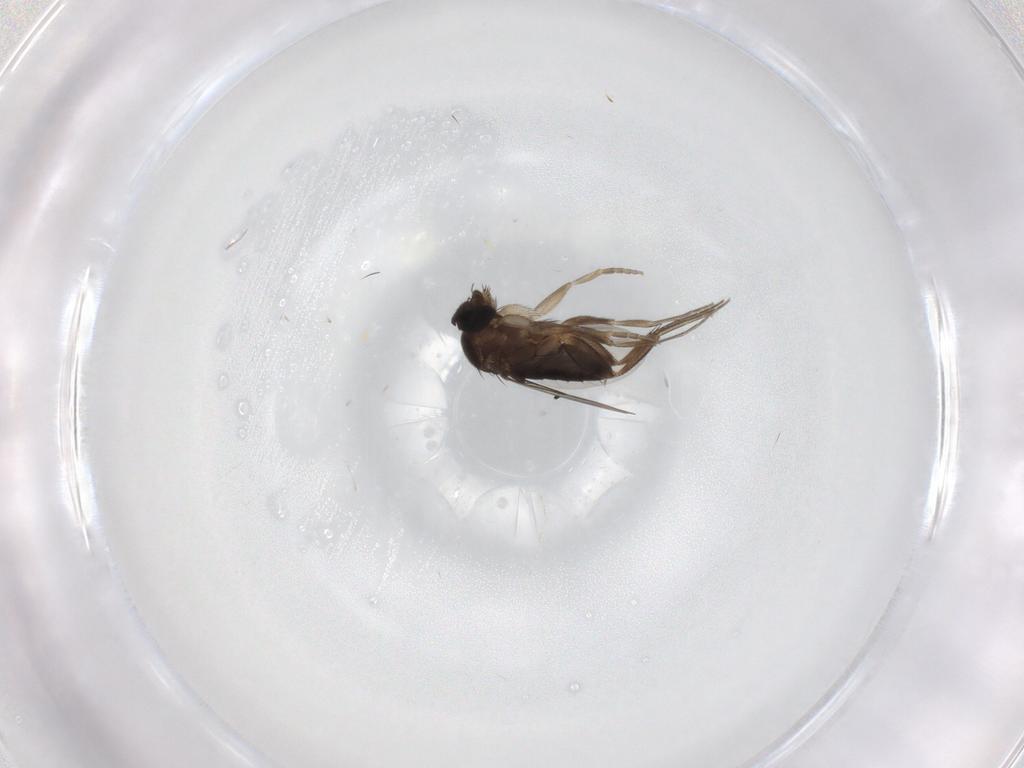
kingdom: Animalia
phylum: Arthropoda
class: Insecta
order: Diptera
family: Phoridae
